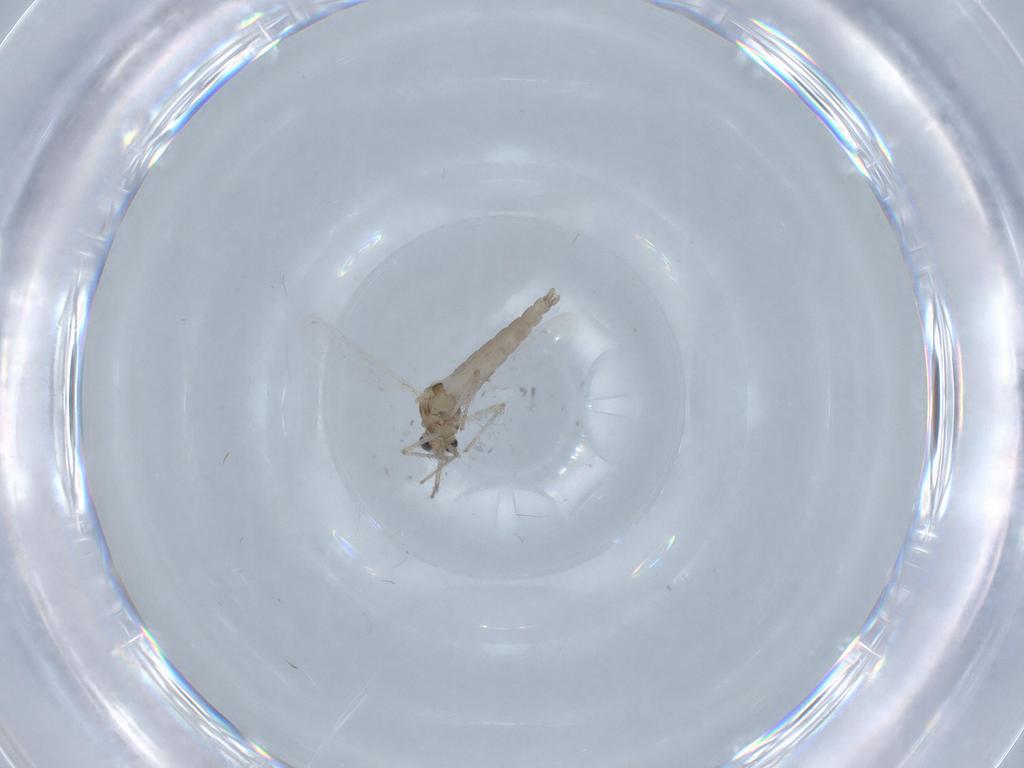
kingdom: Animalia
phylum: Arthropoda
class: Insecta
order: Diptera
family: Chironomidae
